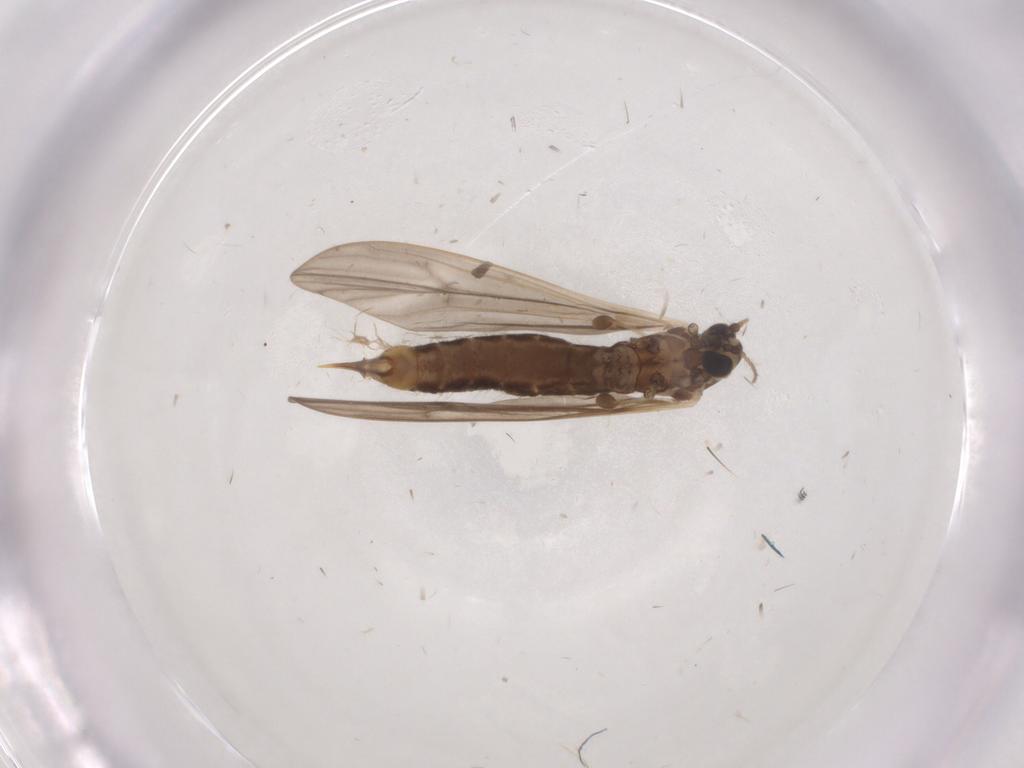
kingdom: Animalia
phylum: Arthropoda
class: Insecta
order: Diptera
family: Limoniidae
